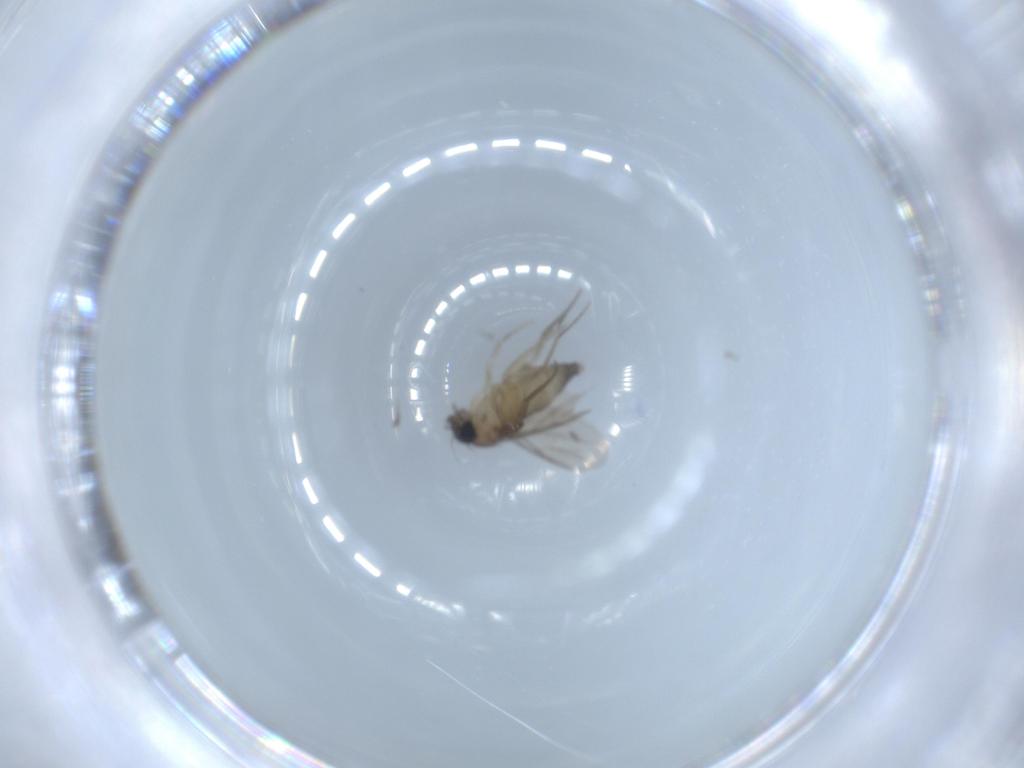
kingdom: Animalia
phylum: Arthropoda
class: Insecta
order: Diptera
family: Phoridae
